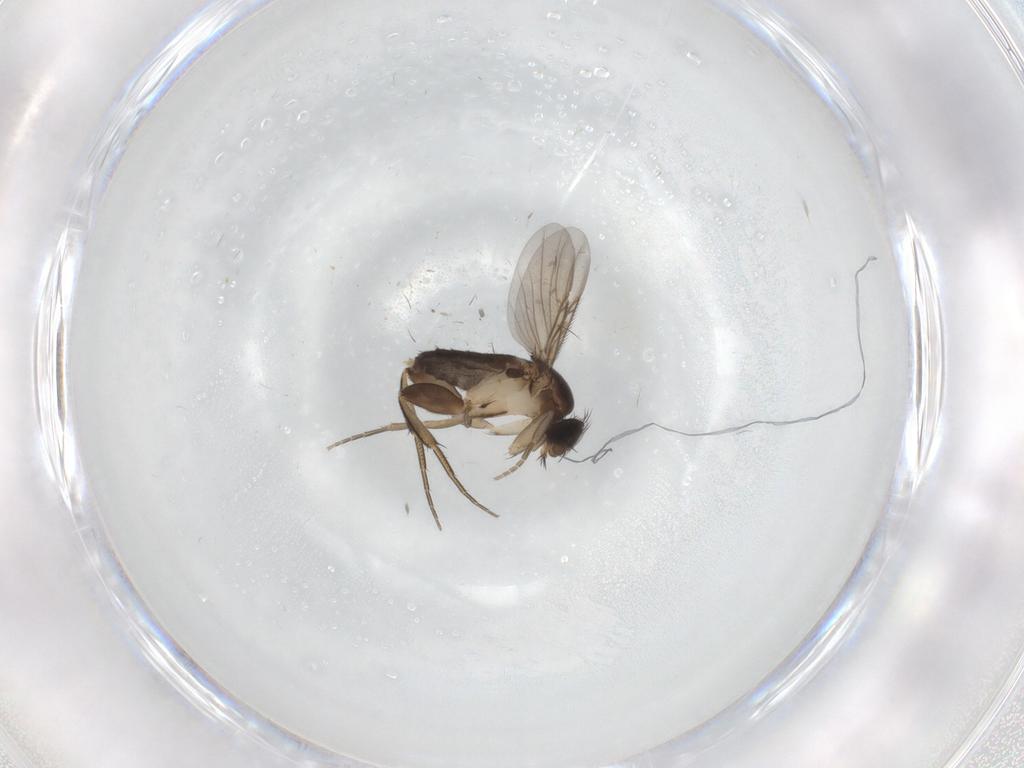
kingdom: Animalia
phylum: Arthropoda
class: Insecta
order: Diptera
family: Phoridae
